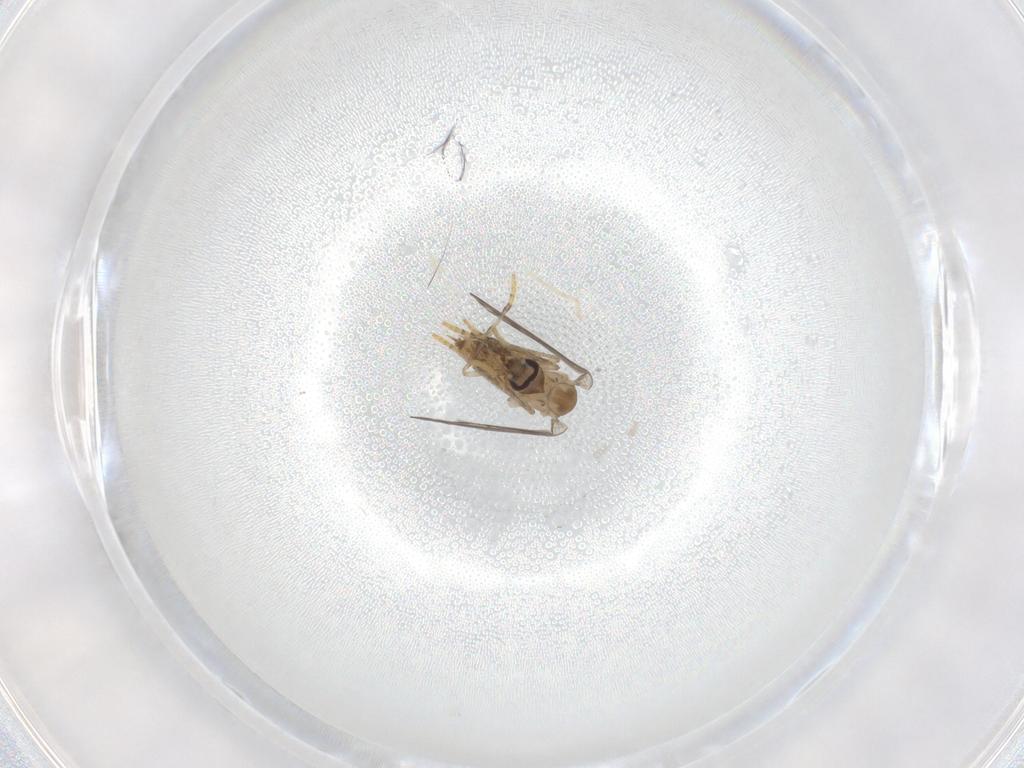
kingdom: Animalia
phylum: Arthropoda
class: Insecta
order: Diptera
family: Psychodidae
